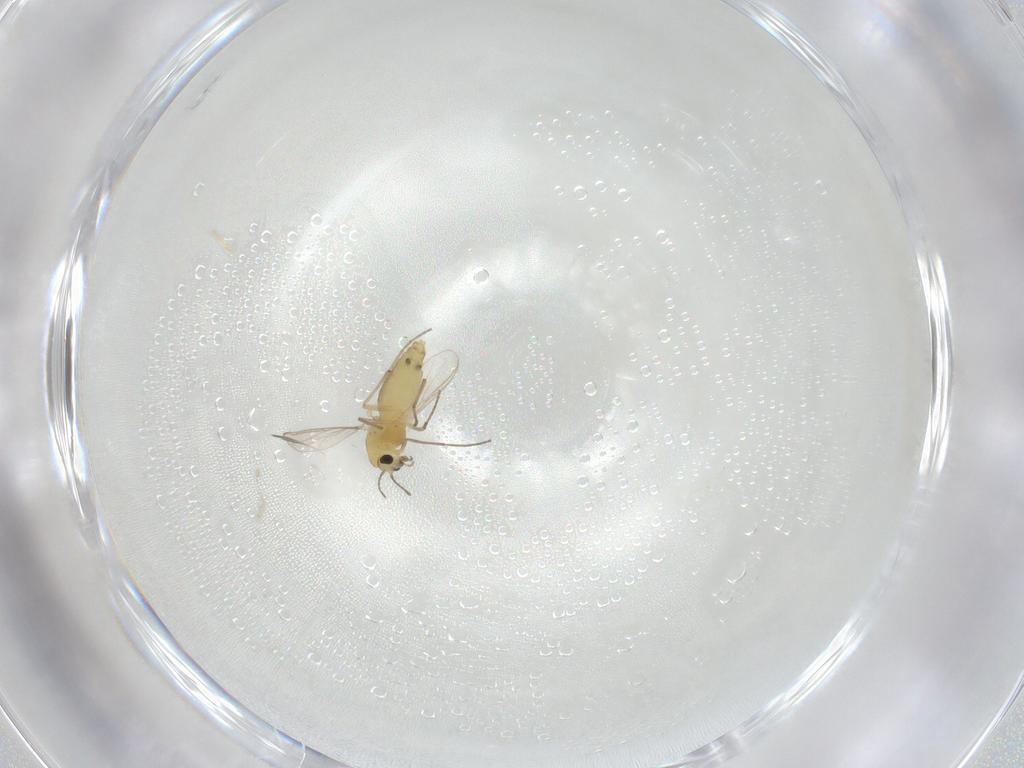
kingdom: Animalia
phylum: Arthropoda
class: Insecta
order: Diptera
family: Chironomidae
